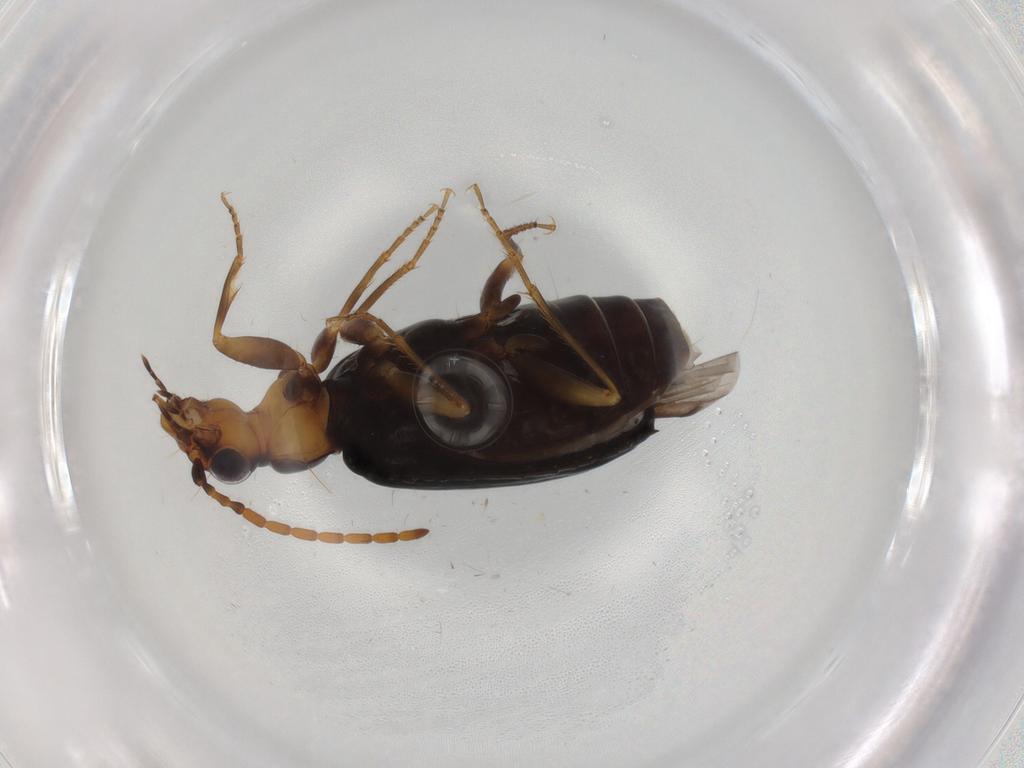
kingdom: Animalia
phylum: Arthropoda
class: Insecta
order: Coleoptera
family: Carabidae
